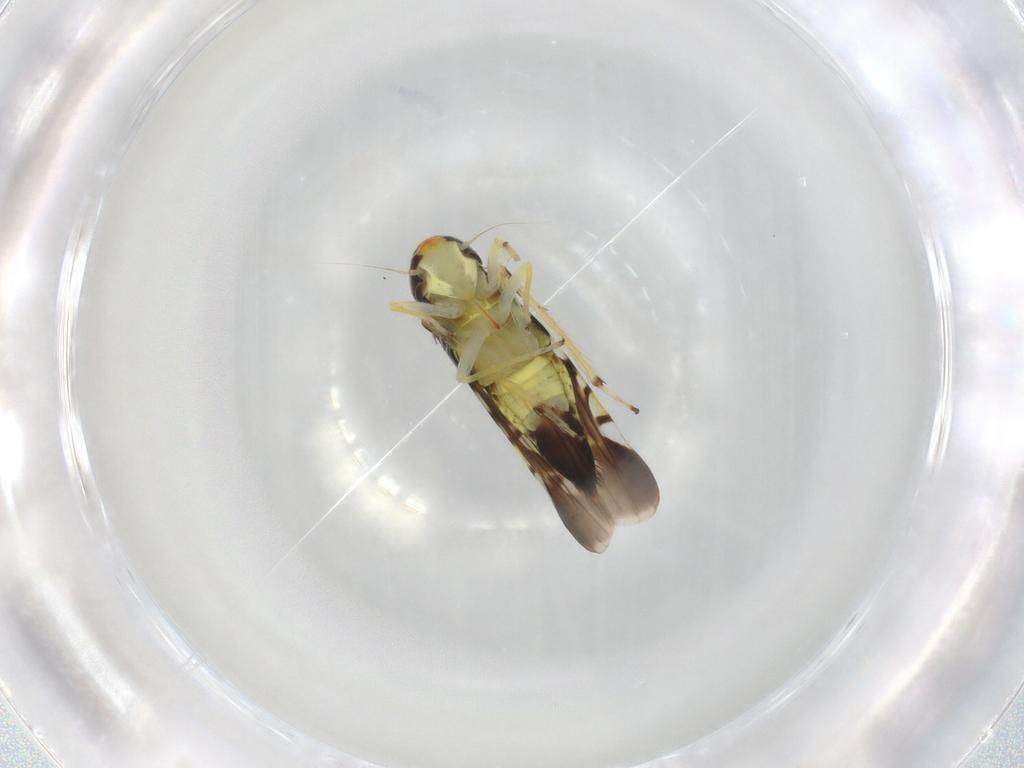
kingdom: Animalia
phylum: Arthropoda
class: Insecta
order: Hemiptera
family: Cicadellidae
